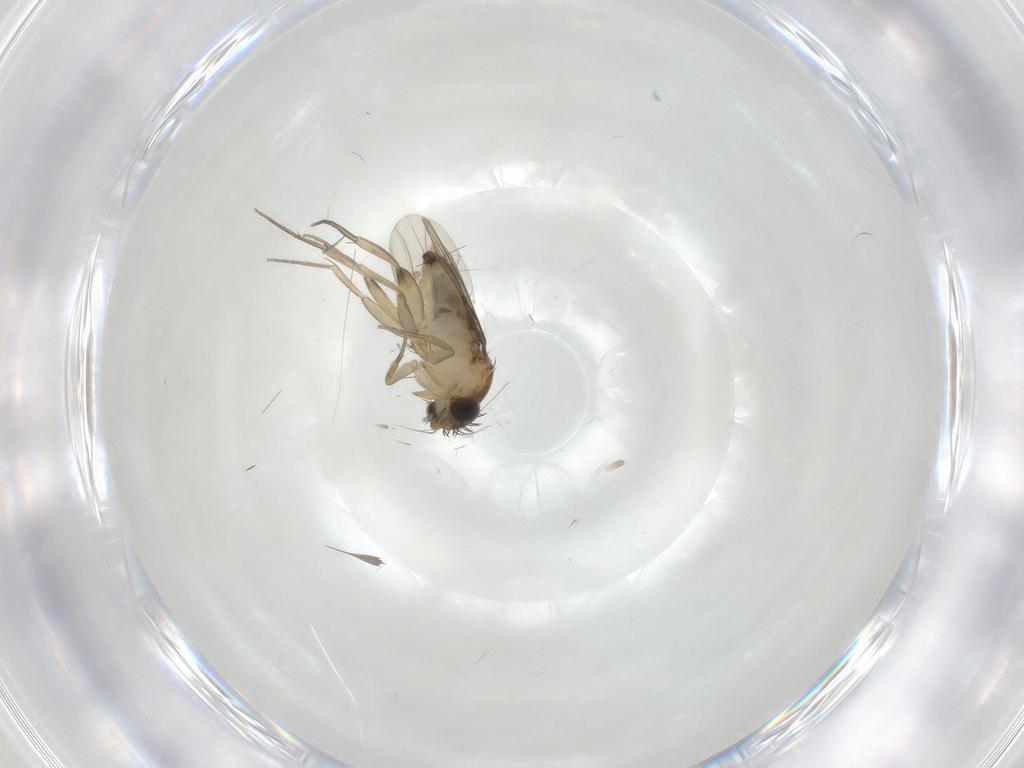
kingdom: Animalia
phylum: Arthropoda
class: Insecta
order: Diptera
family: Phoridae
